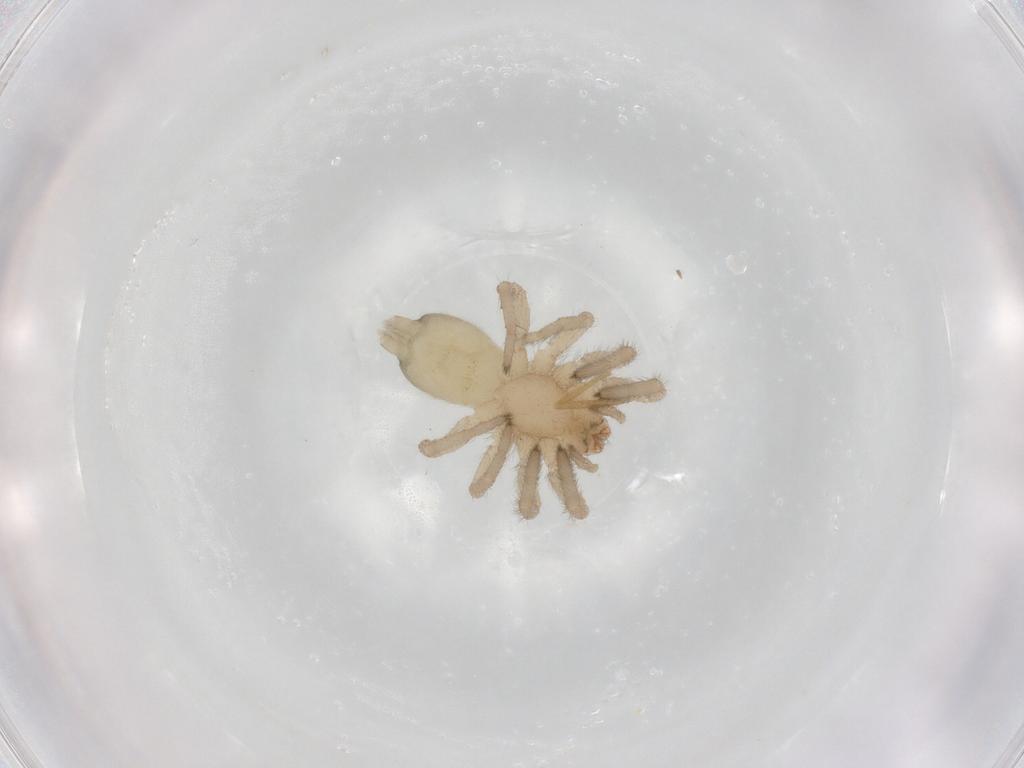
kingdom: Animalia
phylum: Arthropoda
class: Arachnida
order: Araneae
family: Gnaphosidae
